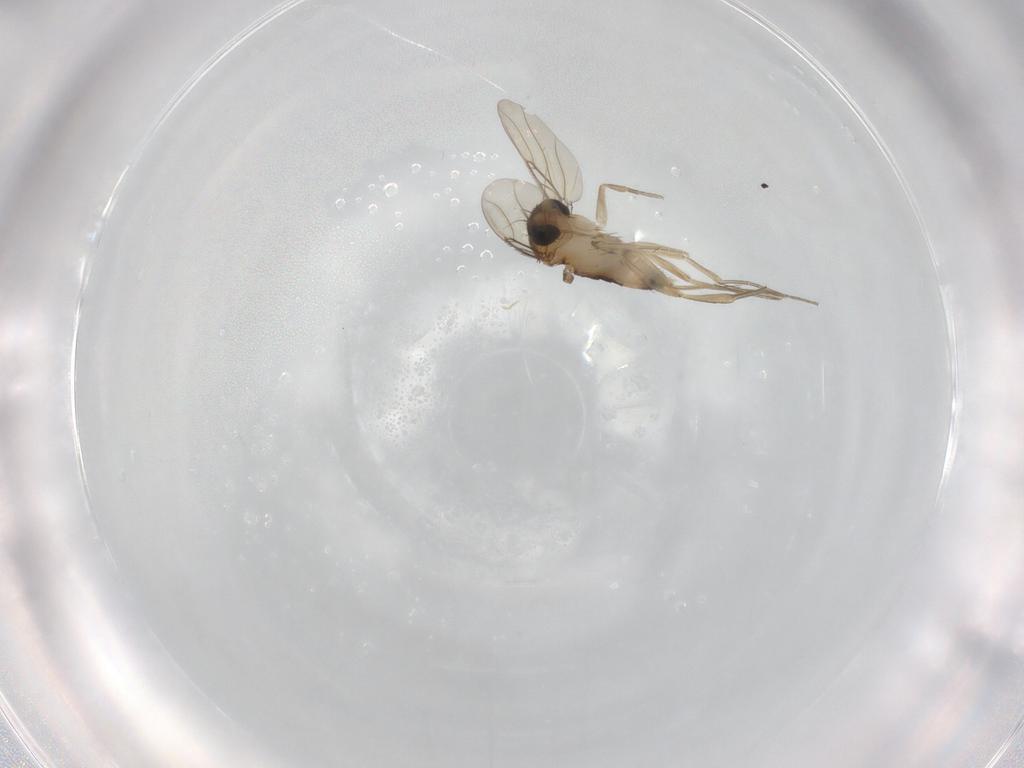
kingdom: Animalia
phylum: Arthropoda
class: Insecta
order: Diptera
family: Cecidomyiidae
